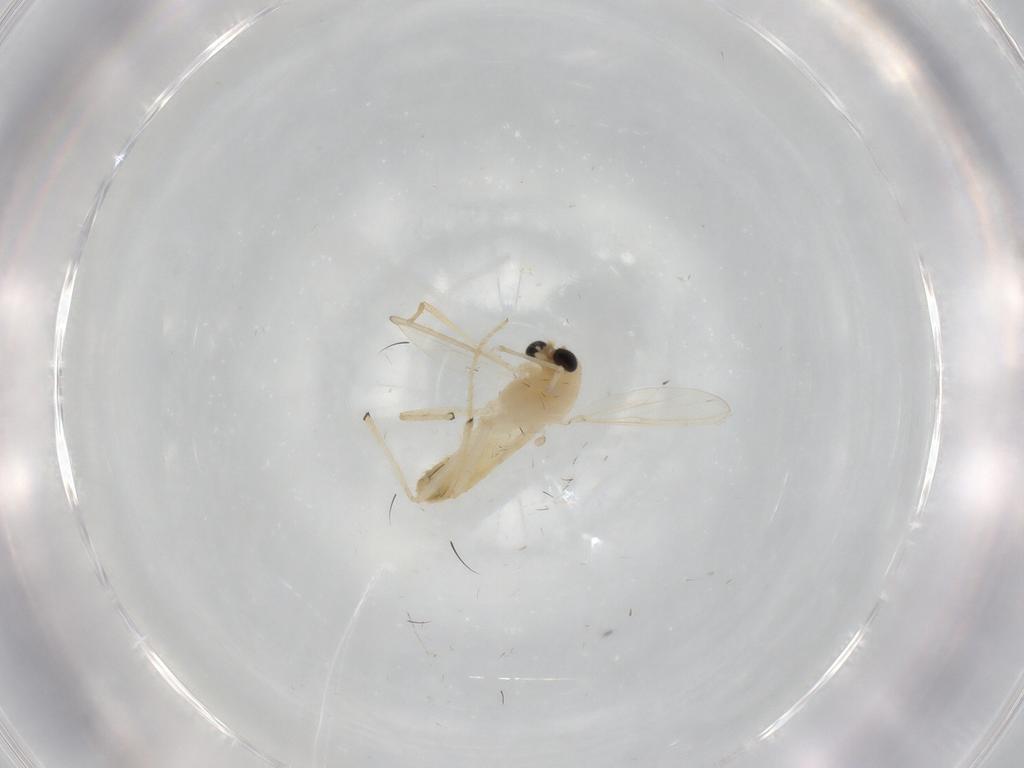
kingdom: Animalia
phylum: Arthropoda
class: Insecta
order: Diptera
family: Chironomidae
